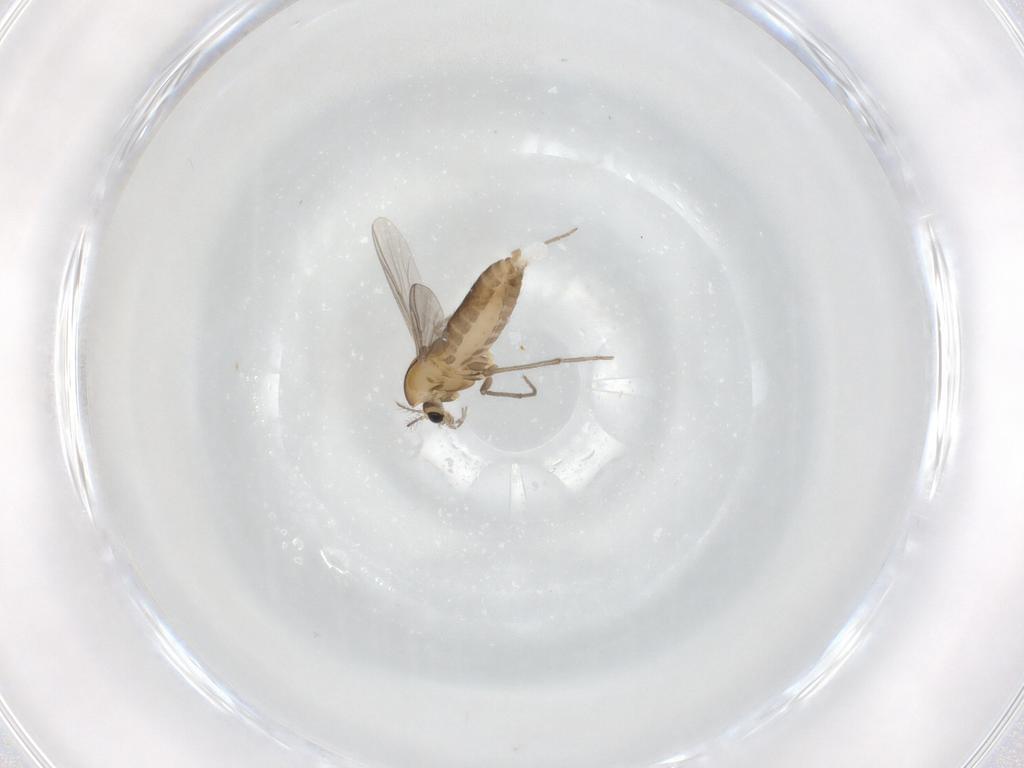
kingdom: Animalia
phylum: Arthropoda
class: Insecta
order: Diptera
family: Chironomidae
